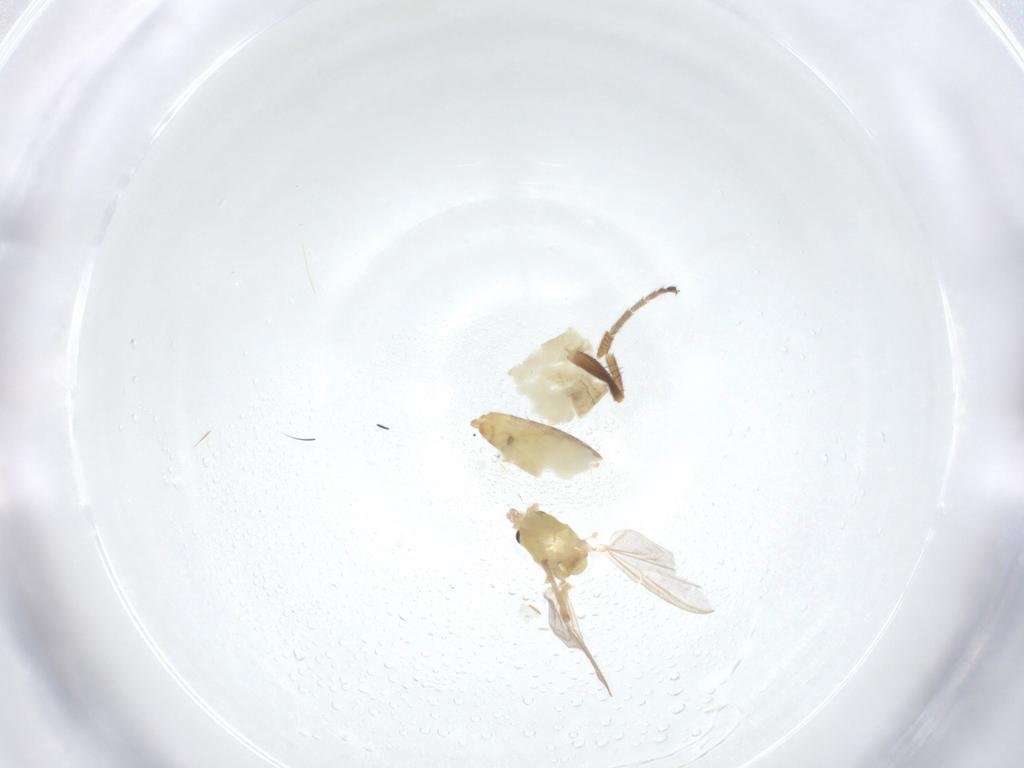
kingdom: Animalia
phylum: Arthropoda
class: Insecta
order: Diptera
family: Chironomidae
